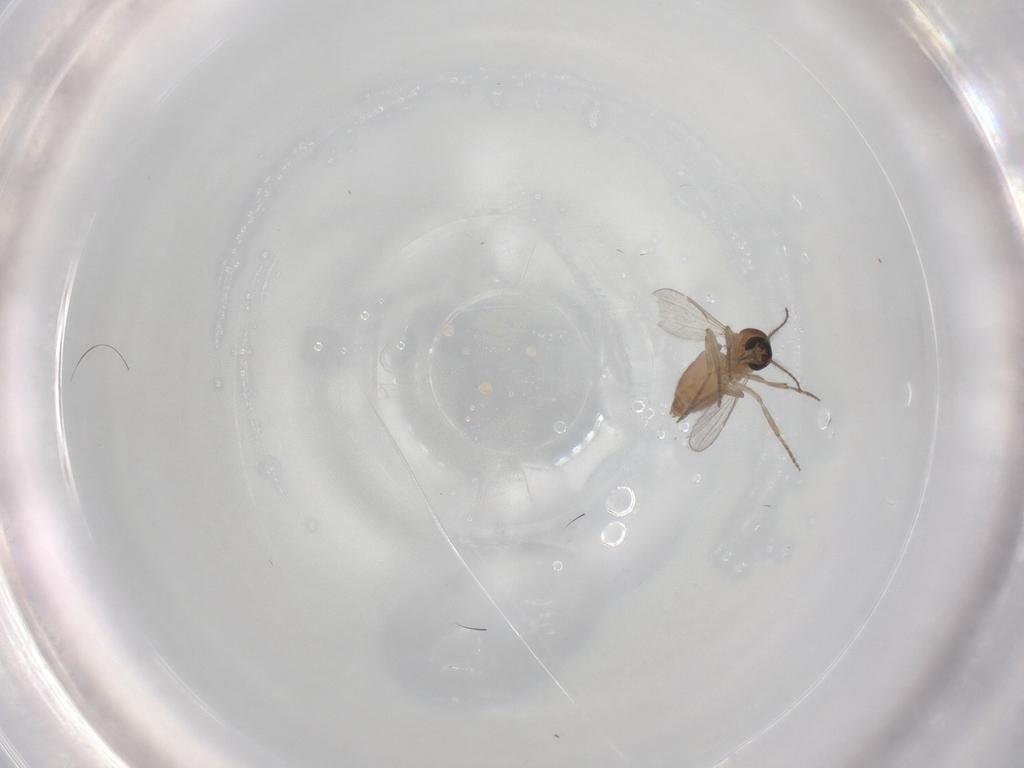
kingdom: Animalia
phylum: Arthropoda
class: Insecta
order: Diptera
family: Ceratopogonidae
